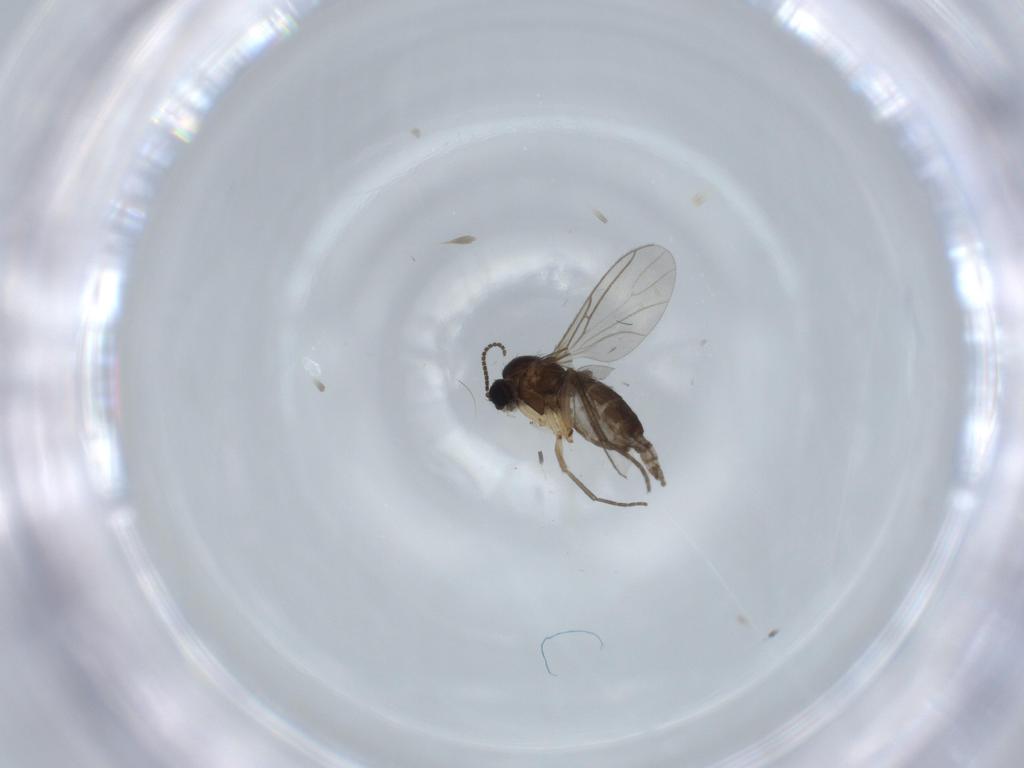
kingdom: Animalia
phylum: Arthropoda
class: Insecta
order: Diptera
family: Sciaridae
